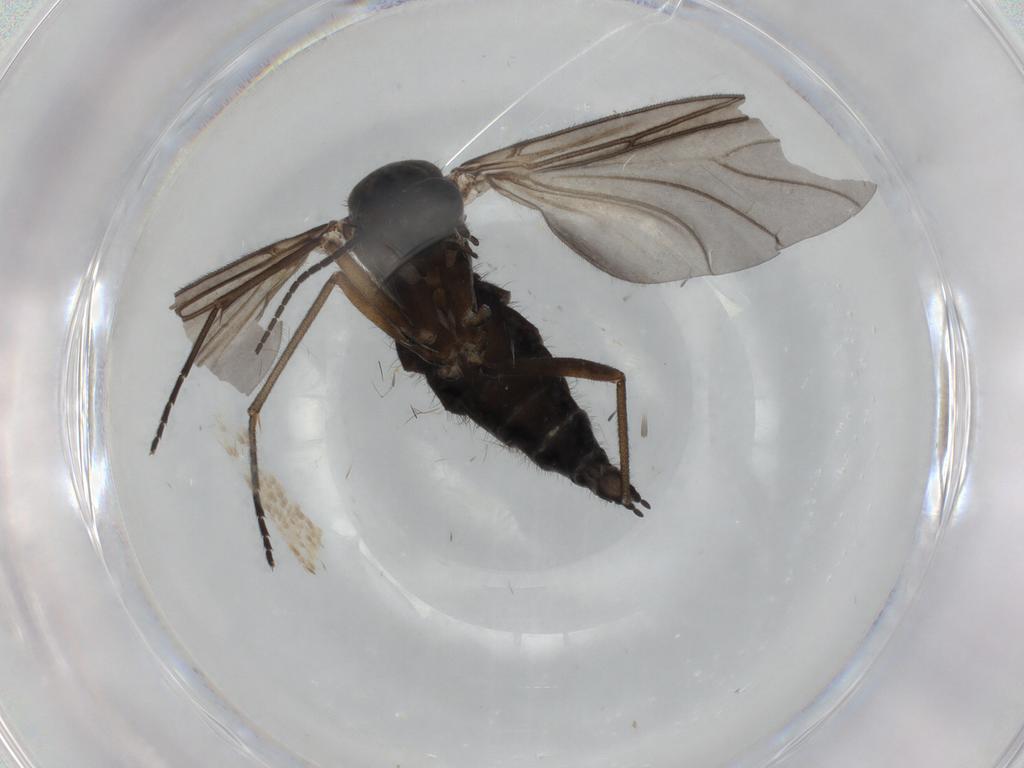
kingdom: Animalia
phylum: Arthropoda
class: Insecta
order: Diptera
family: Sciaridae
